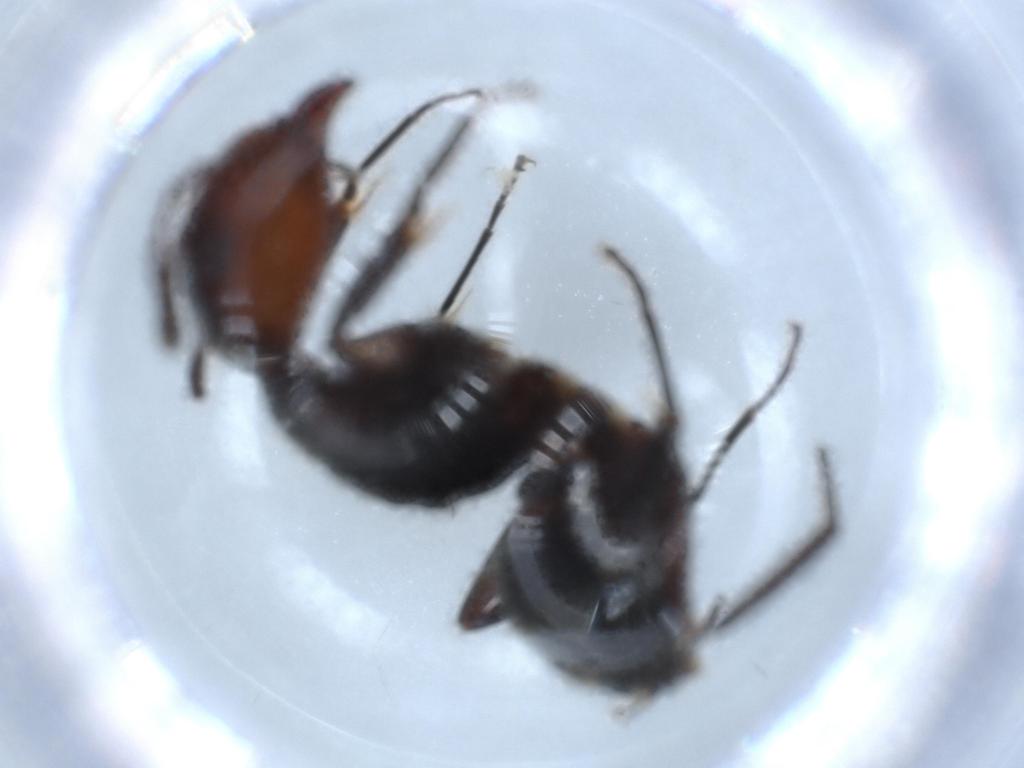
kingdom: Animalia
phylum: Arthropoda
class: Insecta
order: Hymenoptera
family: Formicidae
